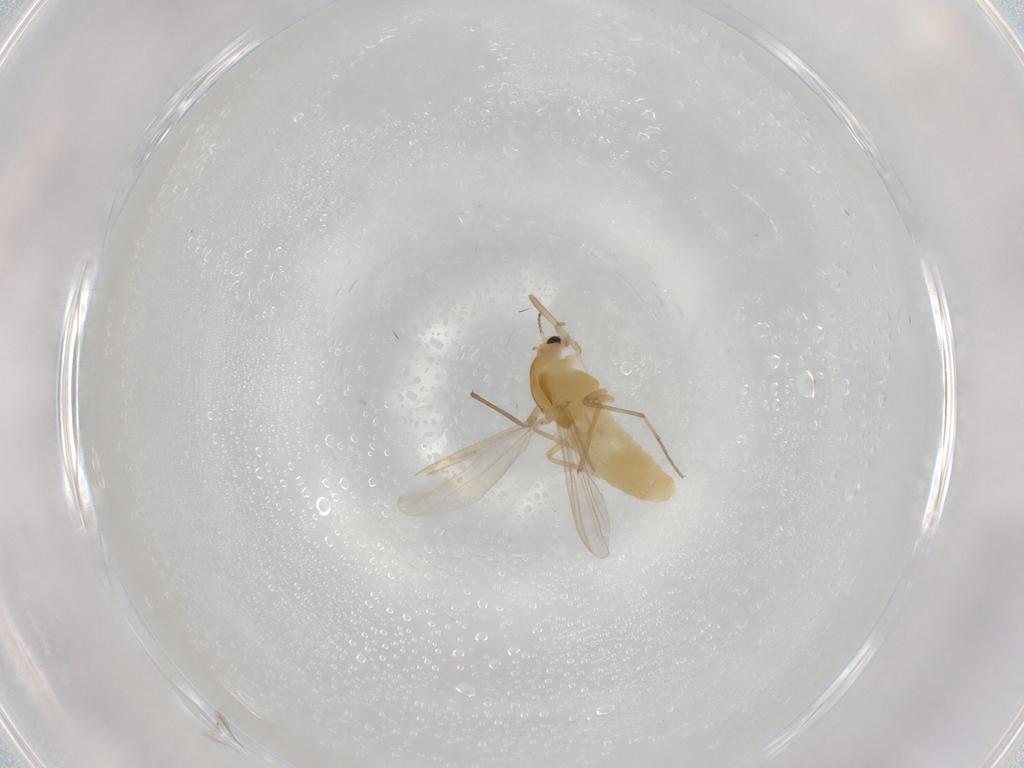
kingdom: Animalia
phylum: Arthropoda
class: Insecta
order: Diptera
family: Chironomidae
